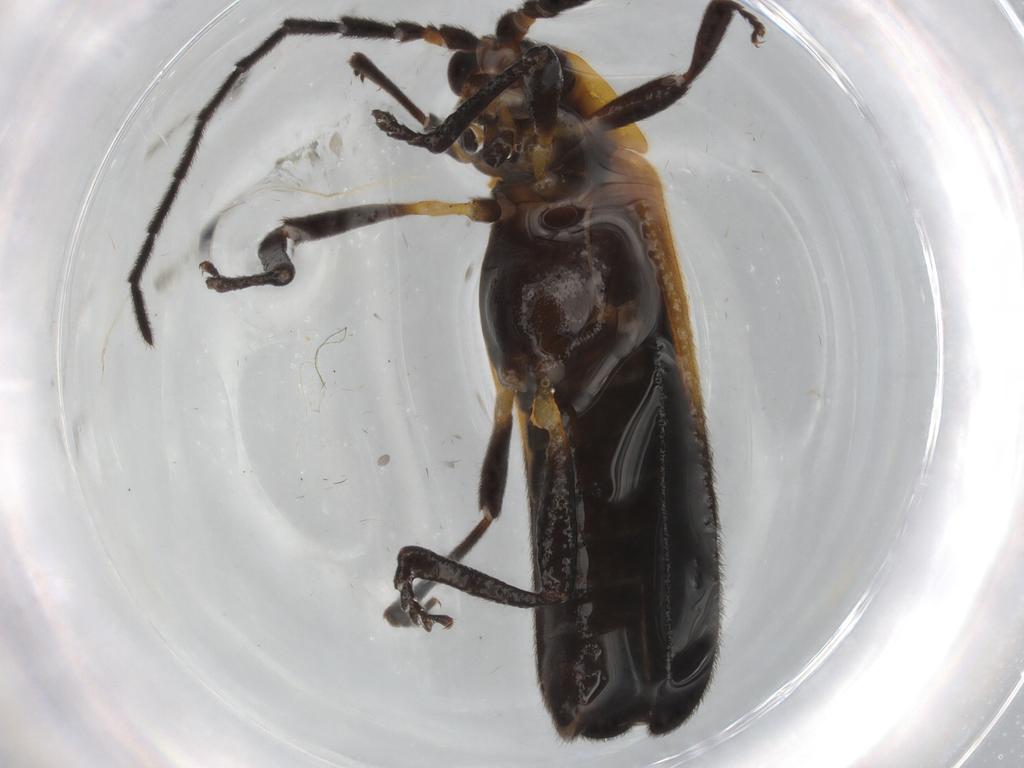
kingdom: Animalia
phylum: Arthropoda
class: Insecta
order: Coleoptera
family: Lycidae
